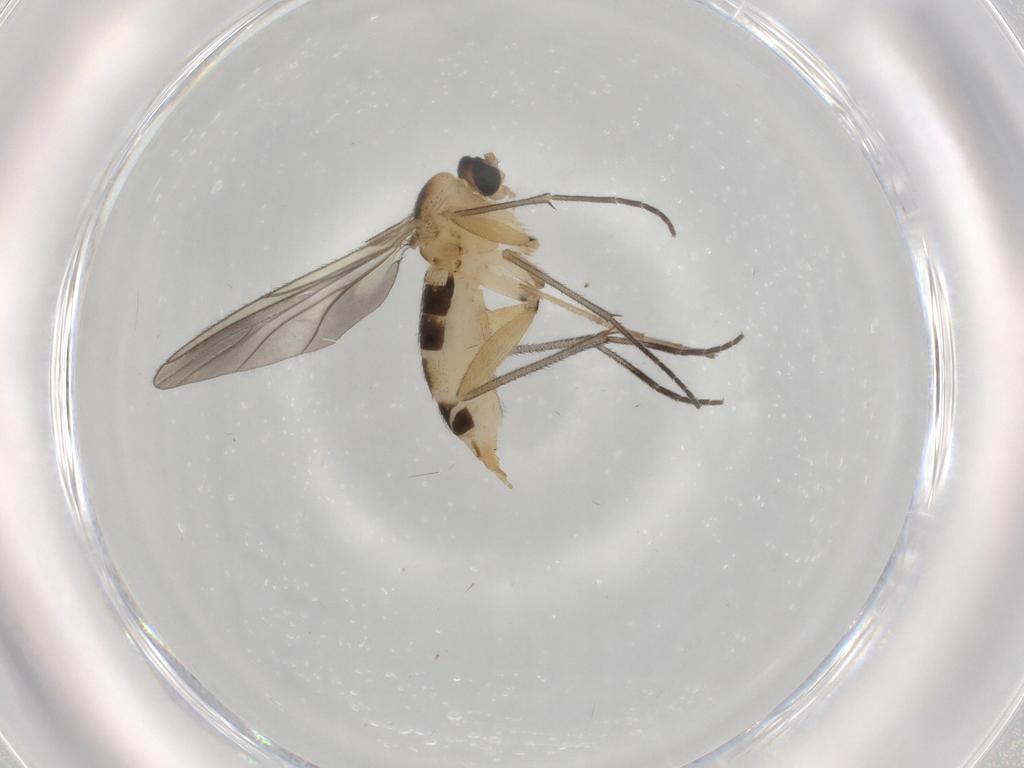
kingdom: Animalia
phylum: Arthropoda
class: Insecta
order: Diptera
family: Sciaridae
